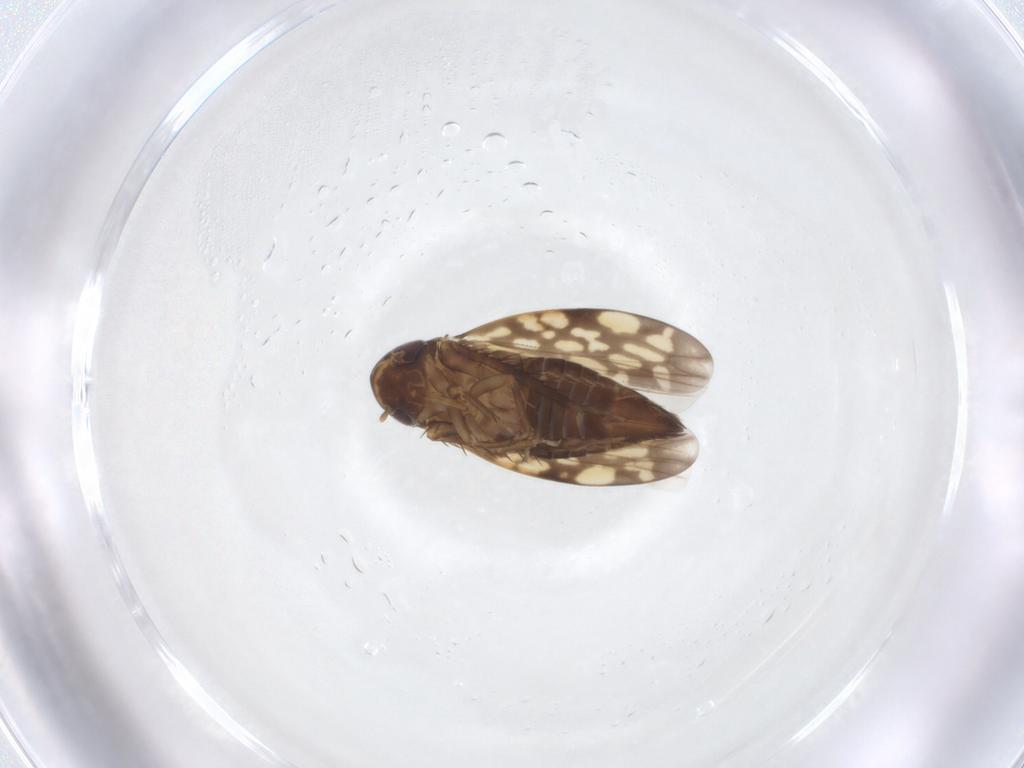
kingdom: Animalia
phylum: Arthropoda
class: Insecta
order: Hemiptera
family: Cicadellidae
